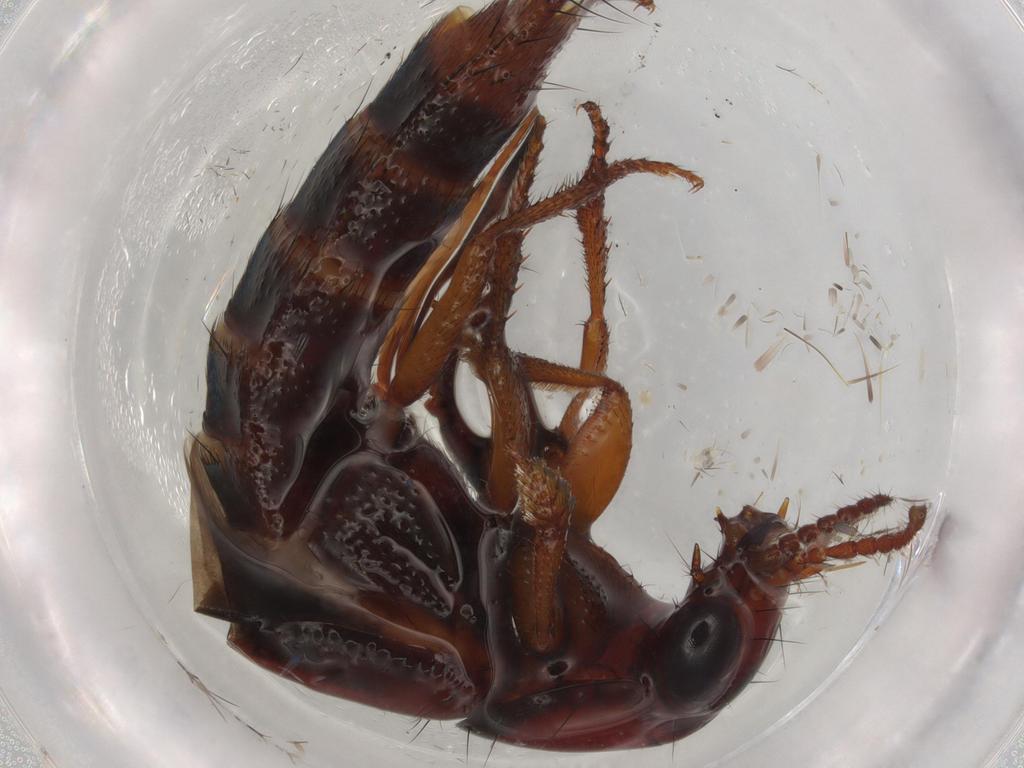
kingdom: Animalia
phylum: Arthropoda
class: Insecta
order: Coleoptera
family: Staphylinidae
